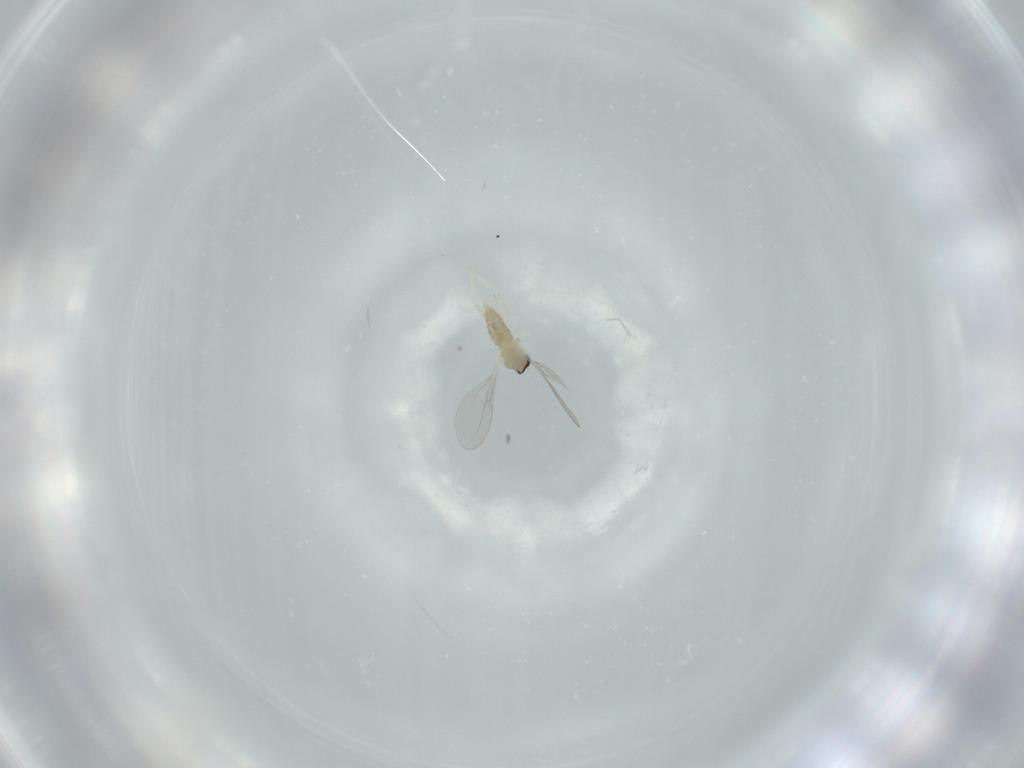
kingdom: Animalia
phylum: Arthropoda
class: Insecta
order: Diptera
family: Cecidomyiidae
